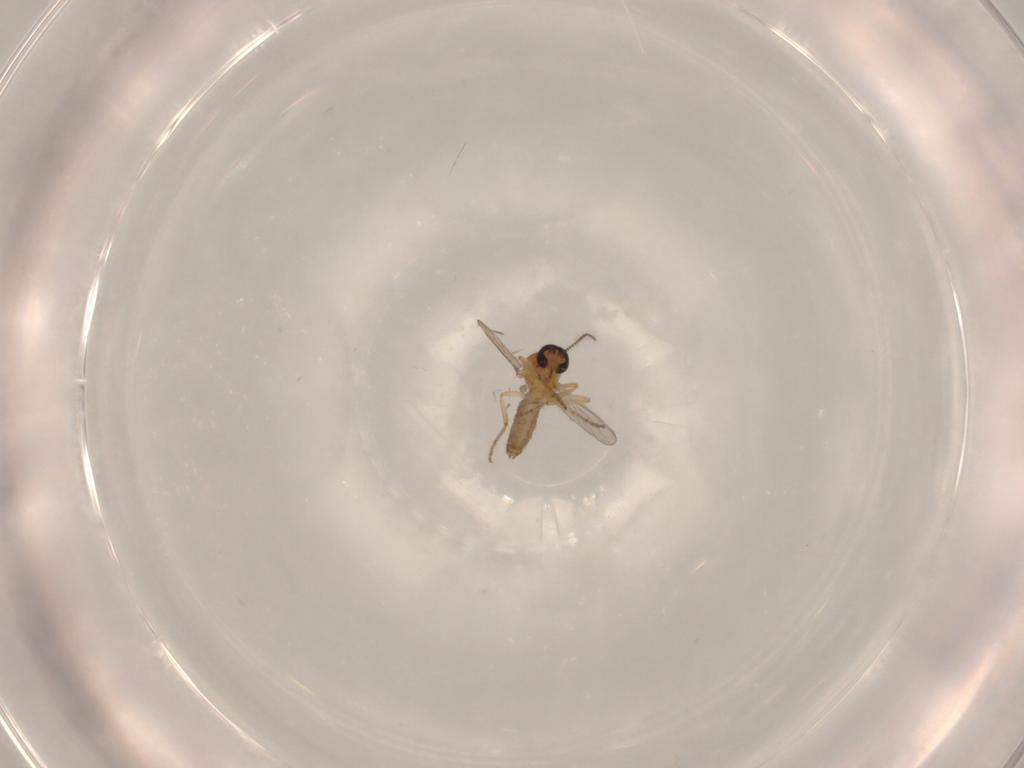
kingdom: Animalia
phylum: Arthropoda
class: Insecta
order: Diptera
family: Ceratopogonidae
